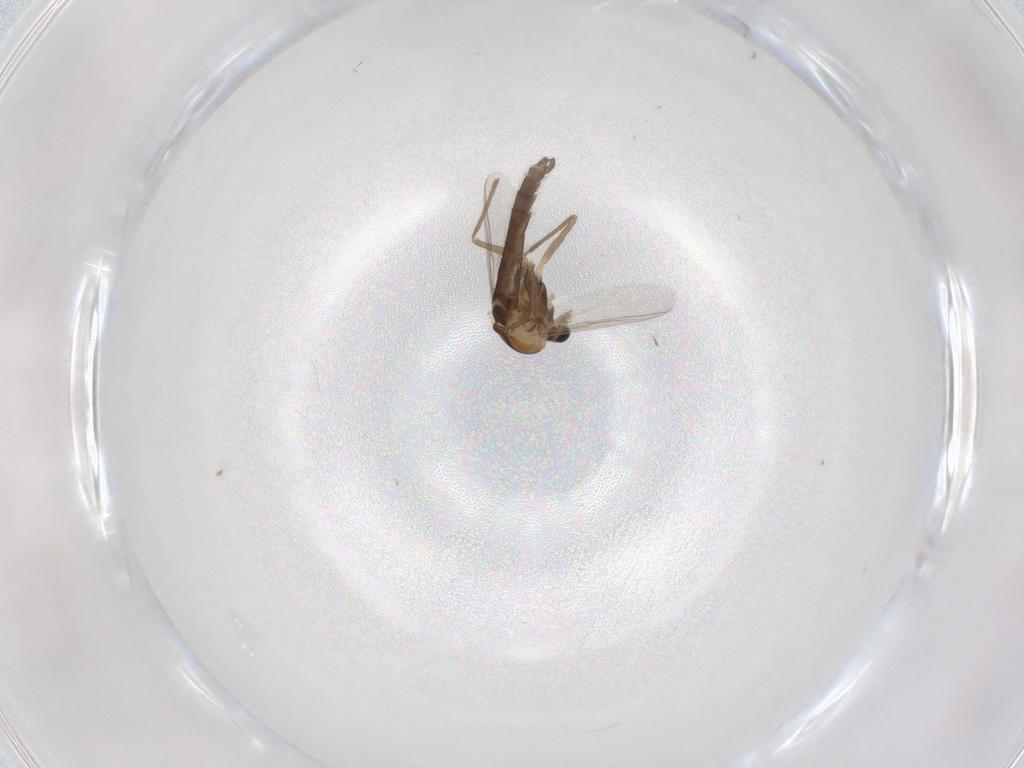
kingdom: Animalia
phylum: Arthropoda
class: Insecta
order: Diptera
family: Chironomidae
